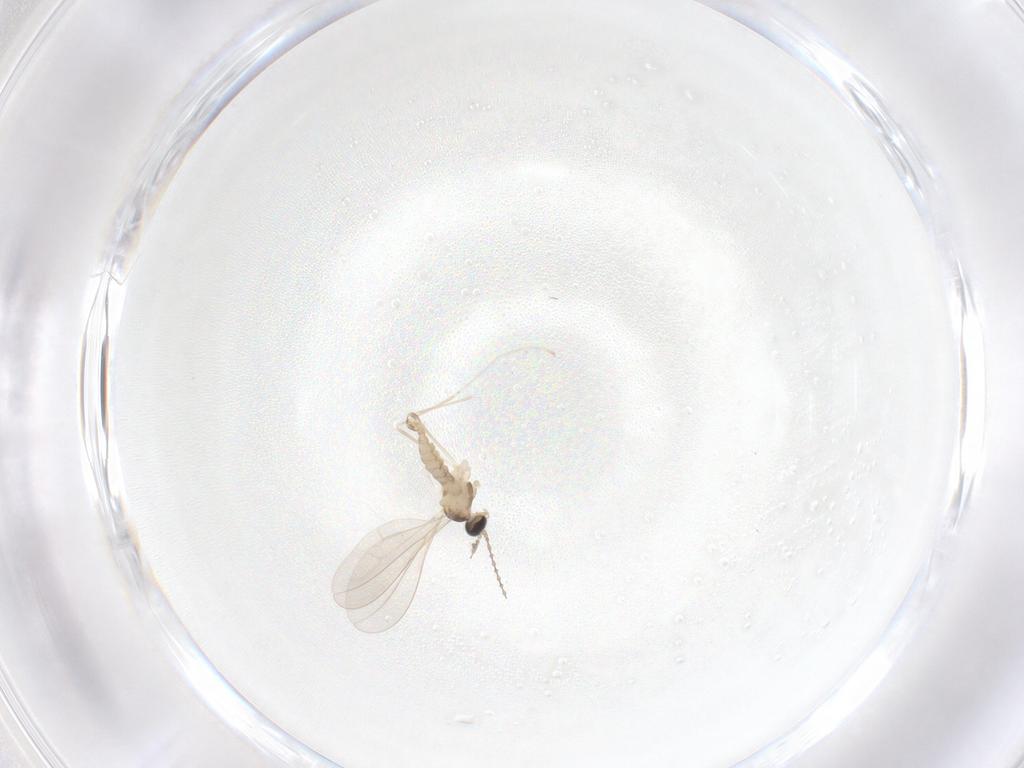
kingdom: Animalia
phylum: Arthropoda
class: Insecta
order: Diptera
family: Cecidomyiidae
